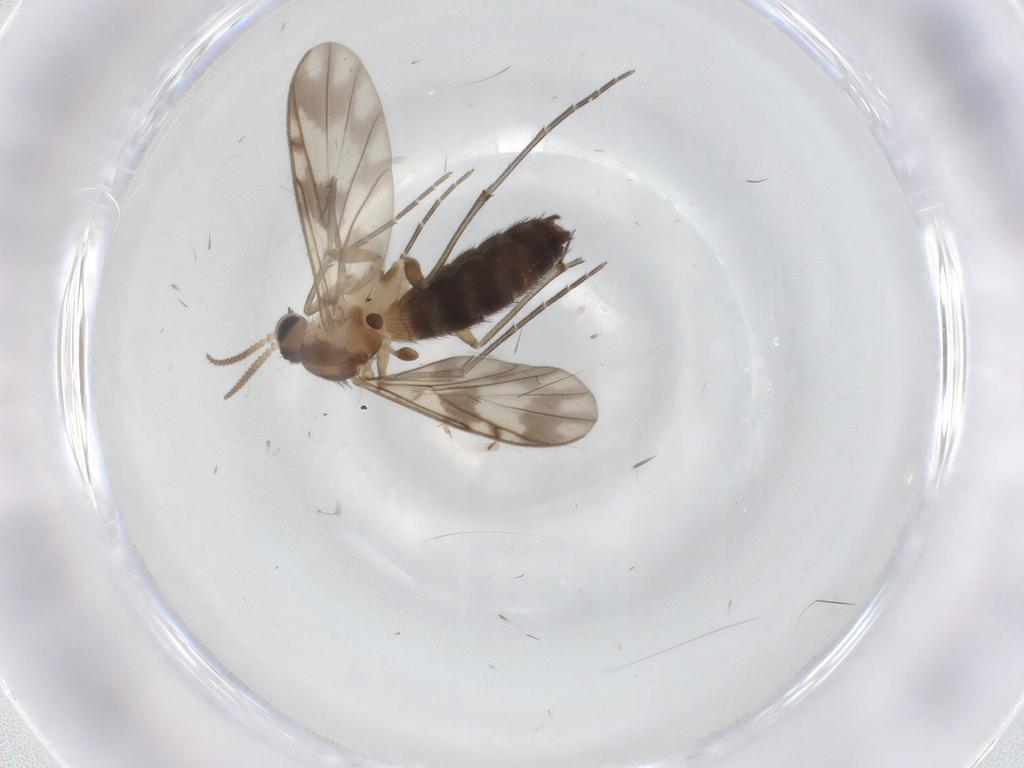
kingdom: Animalia
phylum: Arthropoda
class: Insecta
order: Diptera
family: Keroplatidae
